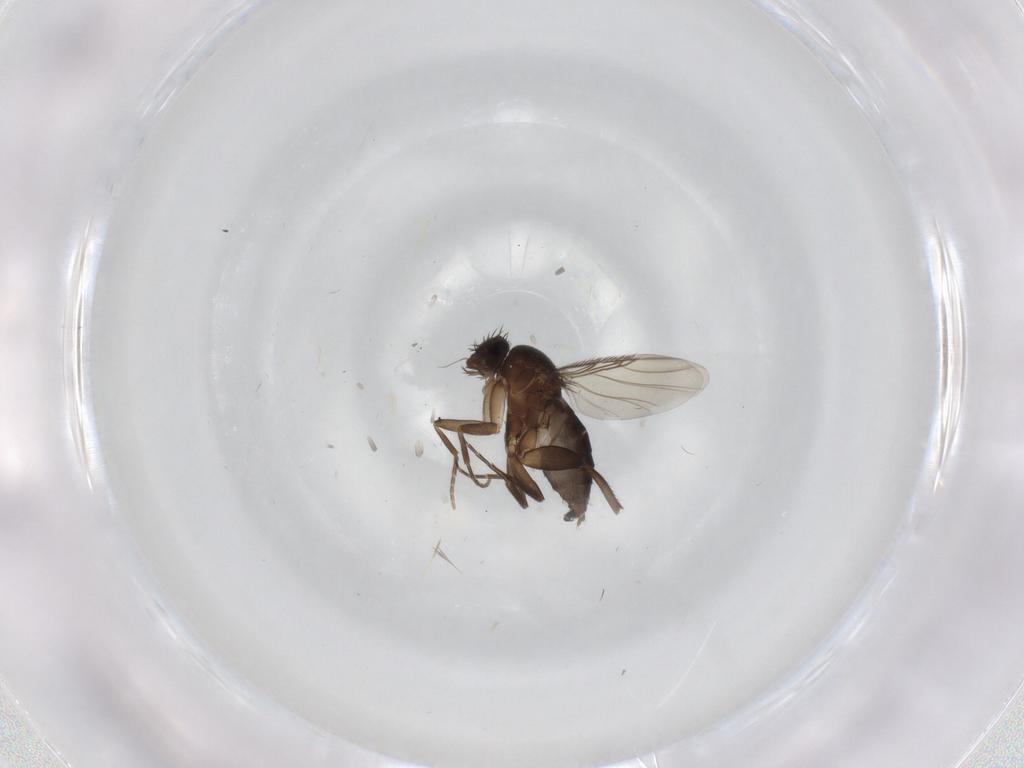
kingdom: Animalia
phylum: Arthropoda
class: Insecta
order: Diptera
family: Phoridae
